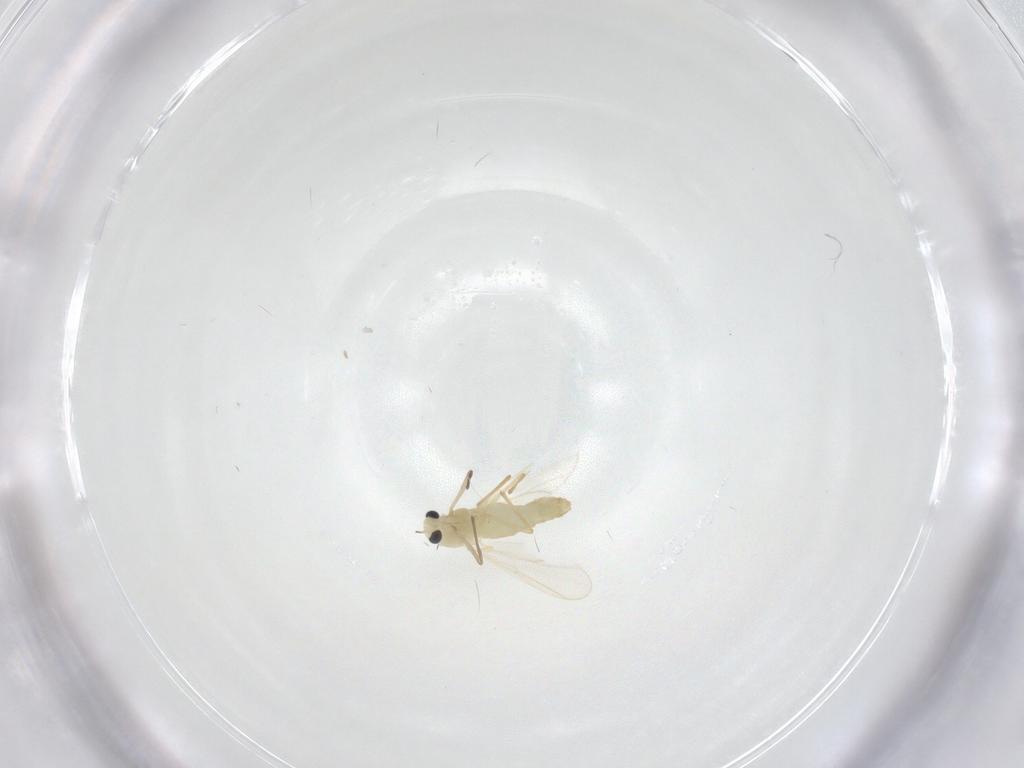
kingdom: Animalia
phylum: Arthropoda
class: Insecta
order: Diptera
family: Chironomidae
